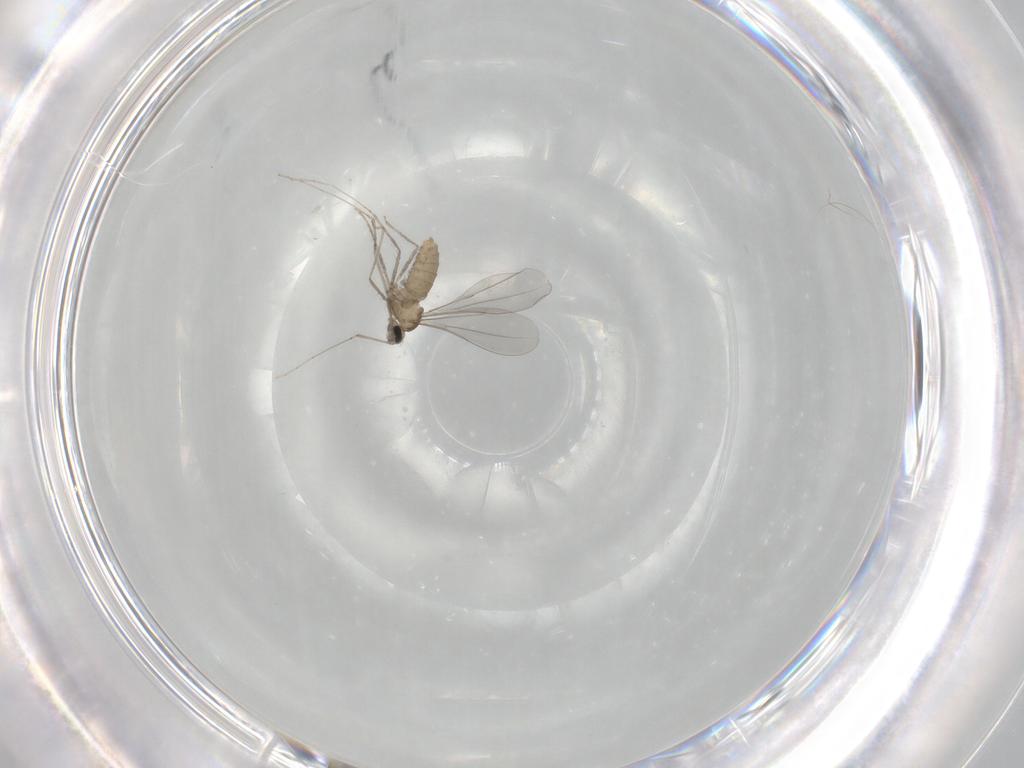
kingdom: Animalia
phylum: Arthropoda
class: Insecta
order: Diptera
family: Chironomidae
